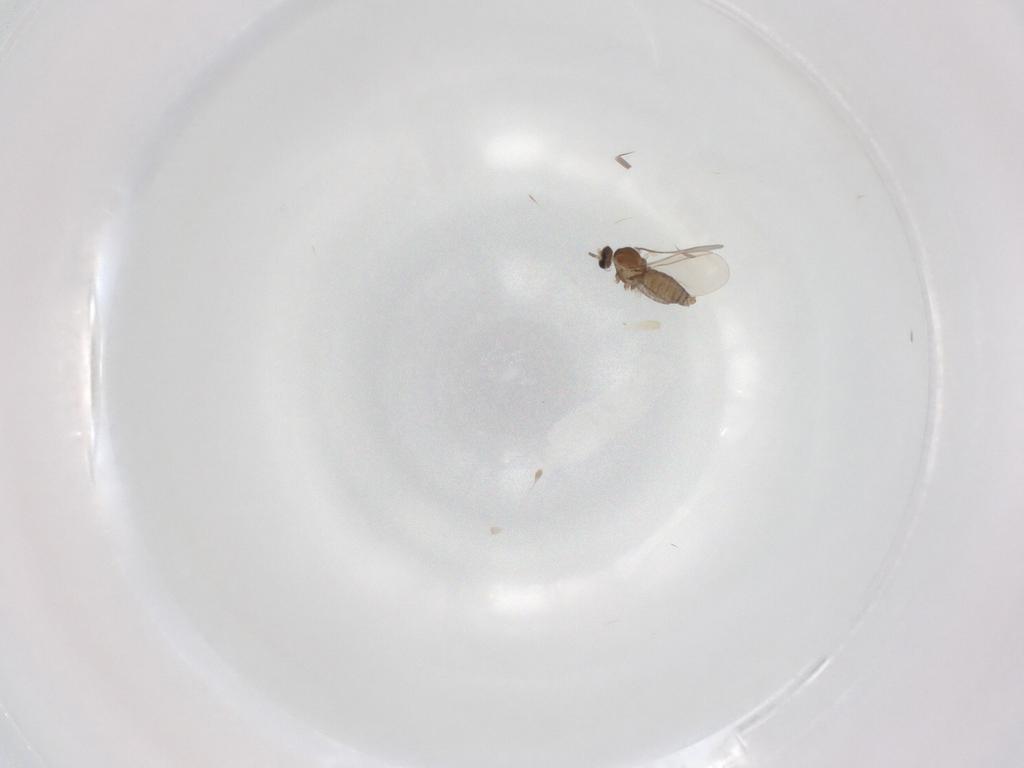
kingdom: Animalia
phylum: Arthropoda
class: Insecta
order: Diptera
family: Cecidomyiidae
